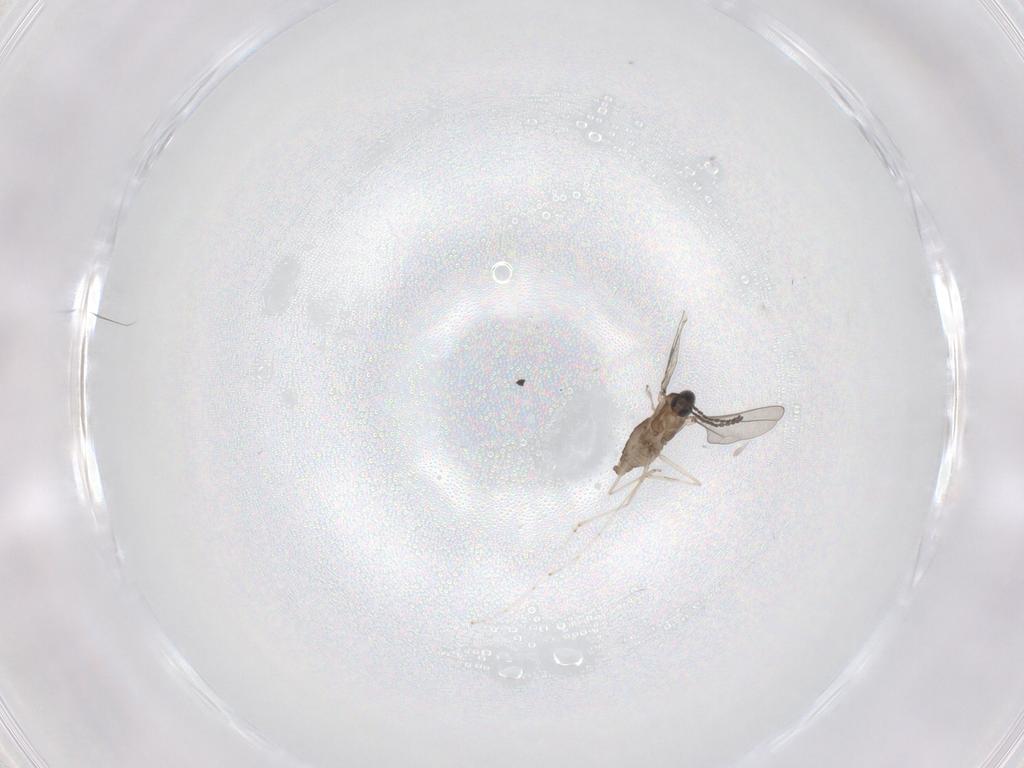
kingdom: Animalia
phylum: Arthropoda
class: Insecta
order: Diptera
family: Cecidomyiidae
